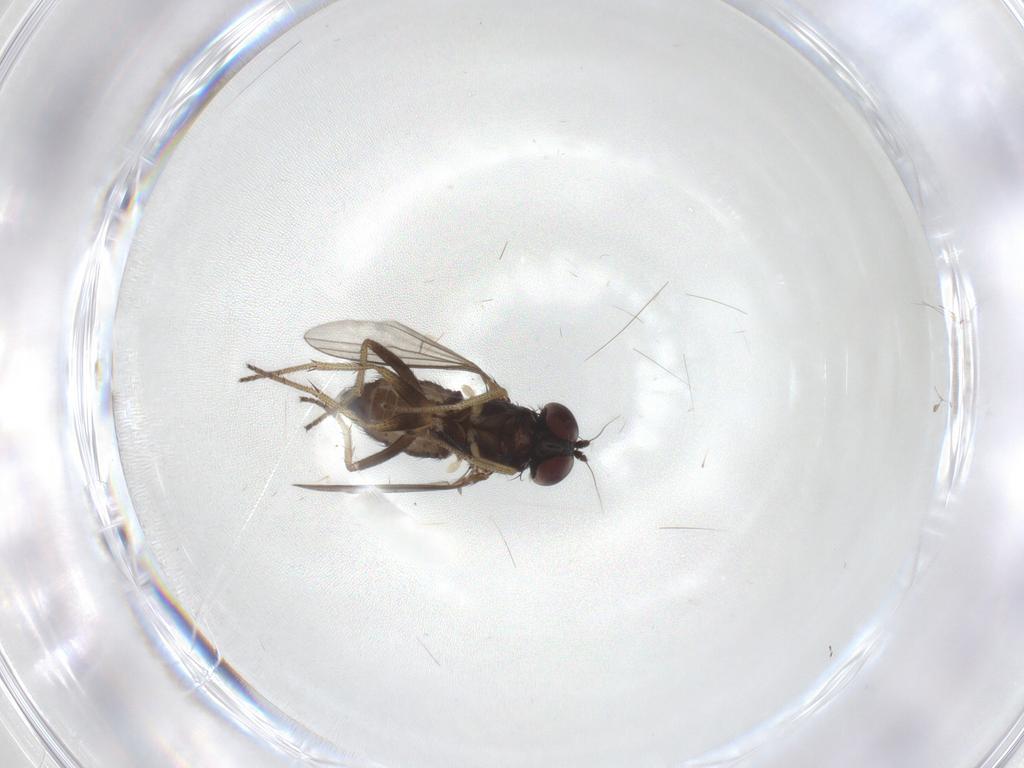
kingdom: Animalia
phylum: Arthropoda
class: Insecta
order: Diptera
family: Dolichopodidae
